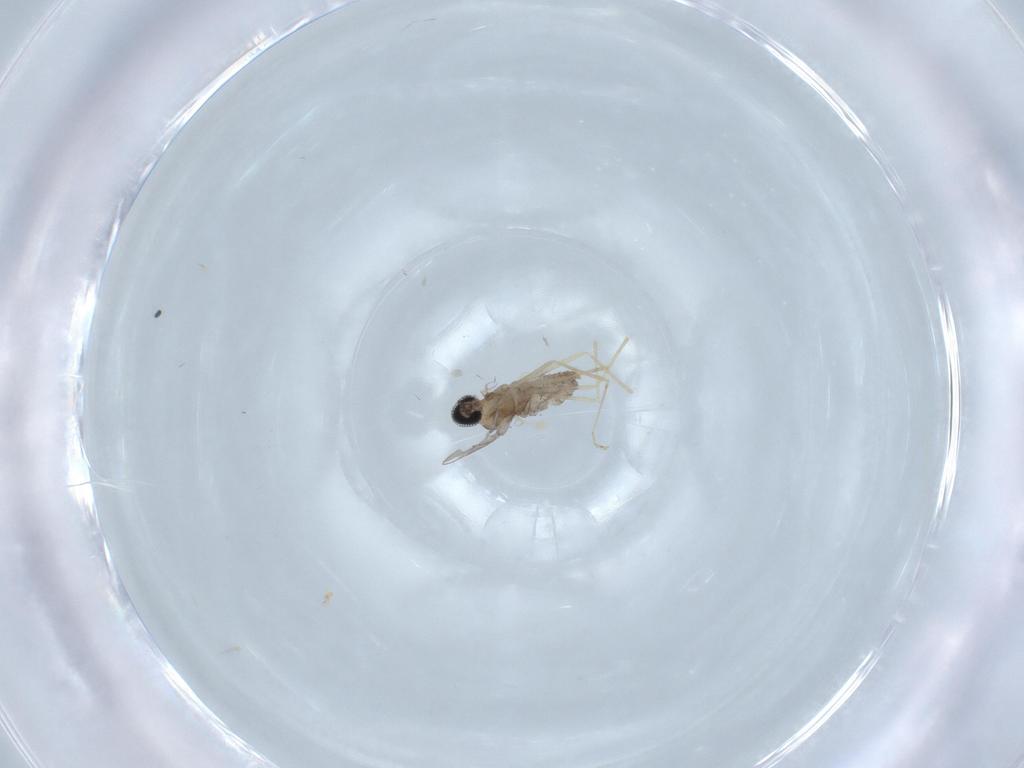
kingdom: Animalia
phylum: Arthropoda
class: Insecta
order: Diptera
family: Cecidomyiidae
